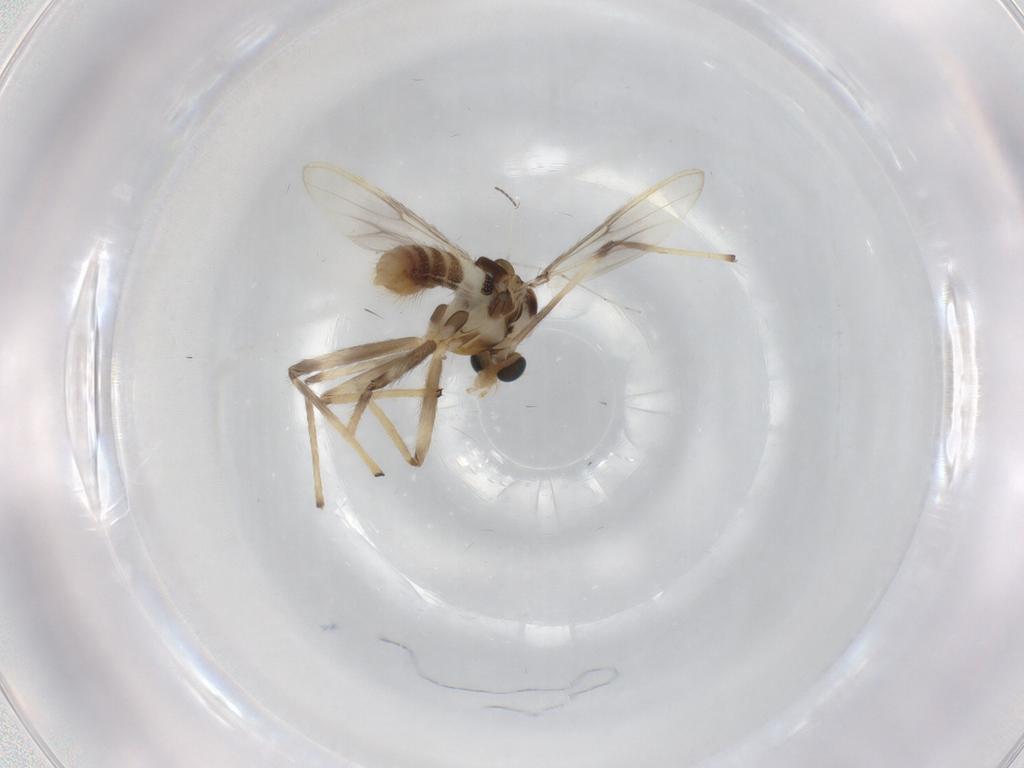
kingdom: Animalia
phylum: Arthropoda
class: Insecta
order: Diptera
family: Chironomidae
